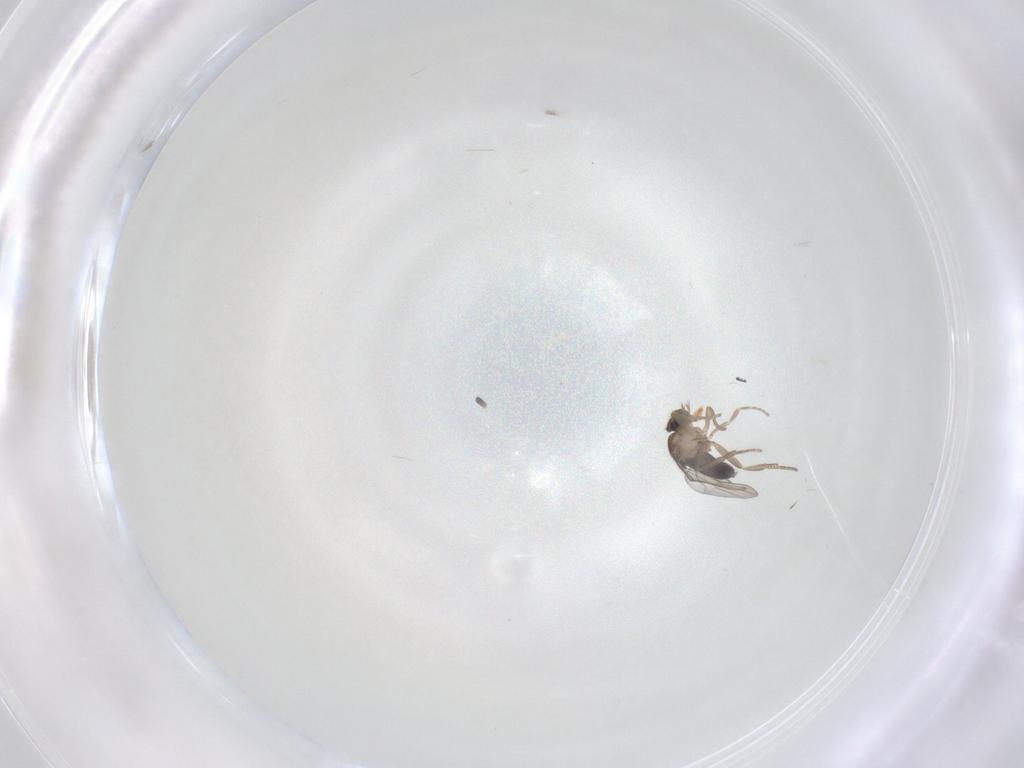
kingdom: Animalia
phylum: Arthropoda
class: Insecta
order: Diptera
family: Phoridae
